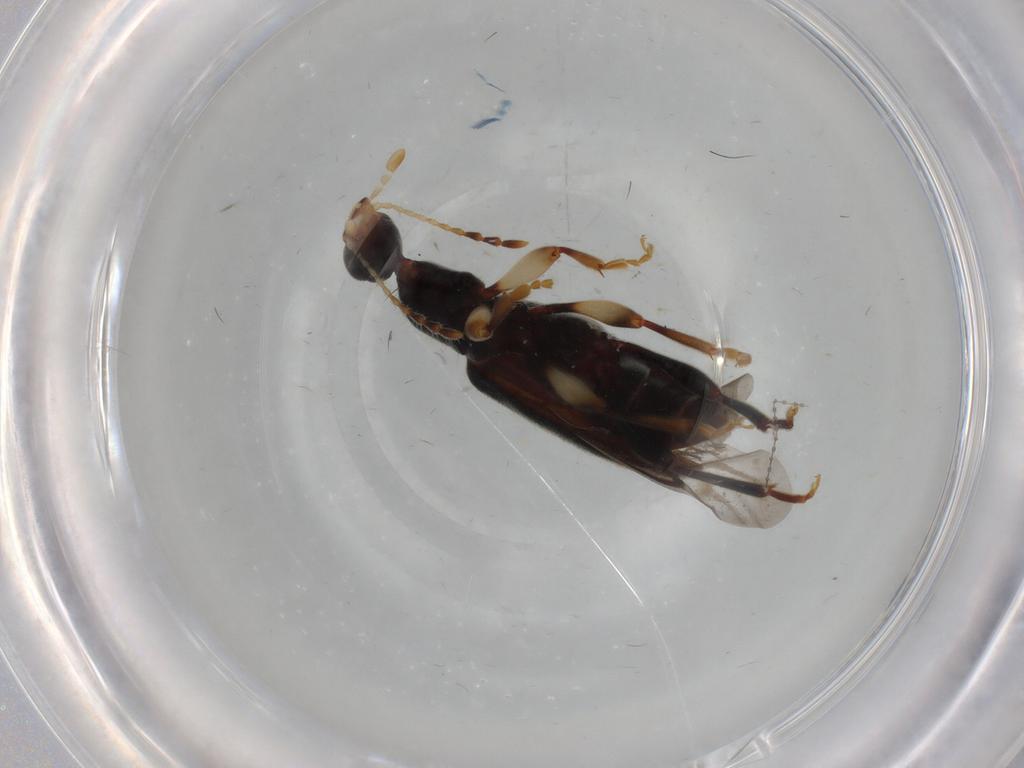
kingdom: Animalia
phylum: Arthropoda
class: Insecta
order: Coleoptera
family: Anthicidae
